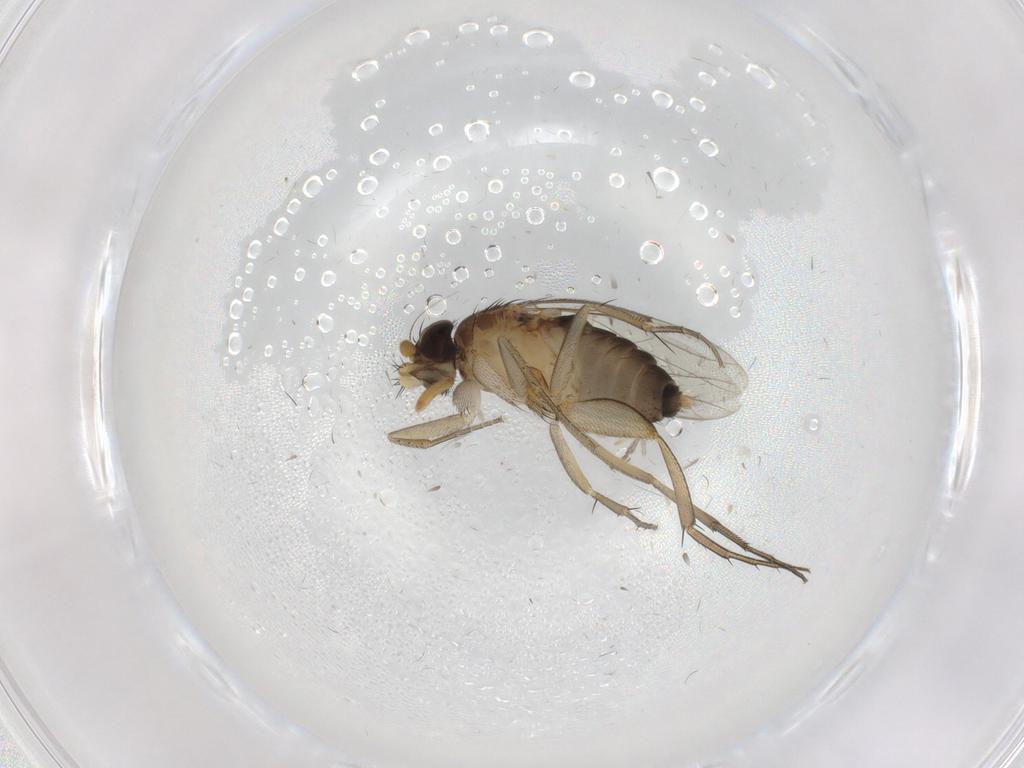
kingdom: Animalia
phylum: Arthropoda
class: Insecta
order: Diptera
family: Phoridae
